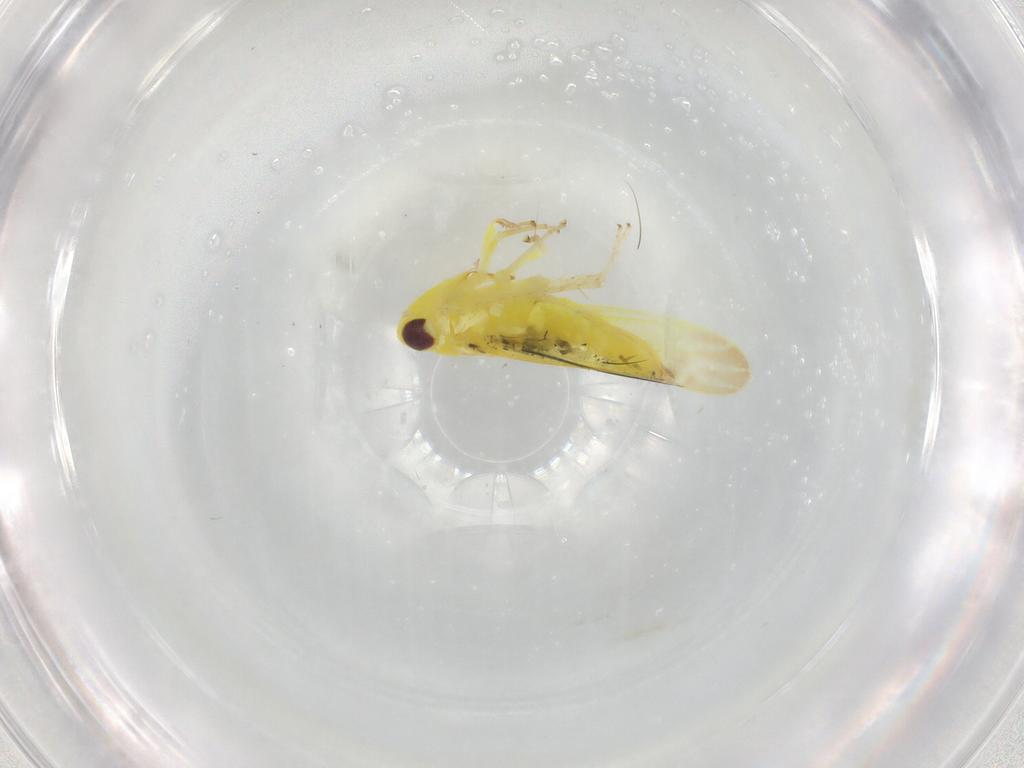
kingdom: Animalia
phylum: Arthropoda
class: Insecta
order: Hemiptera
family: Cicadellidae
